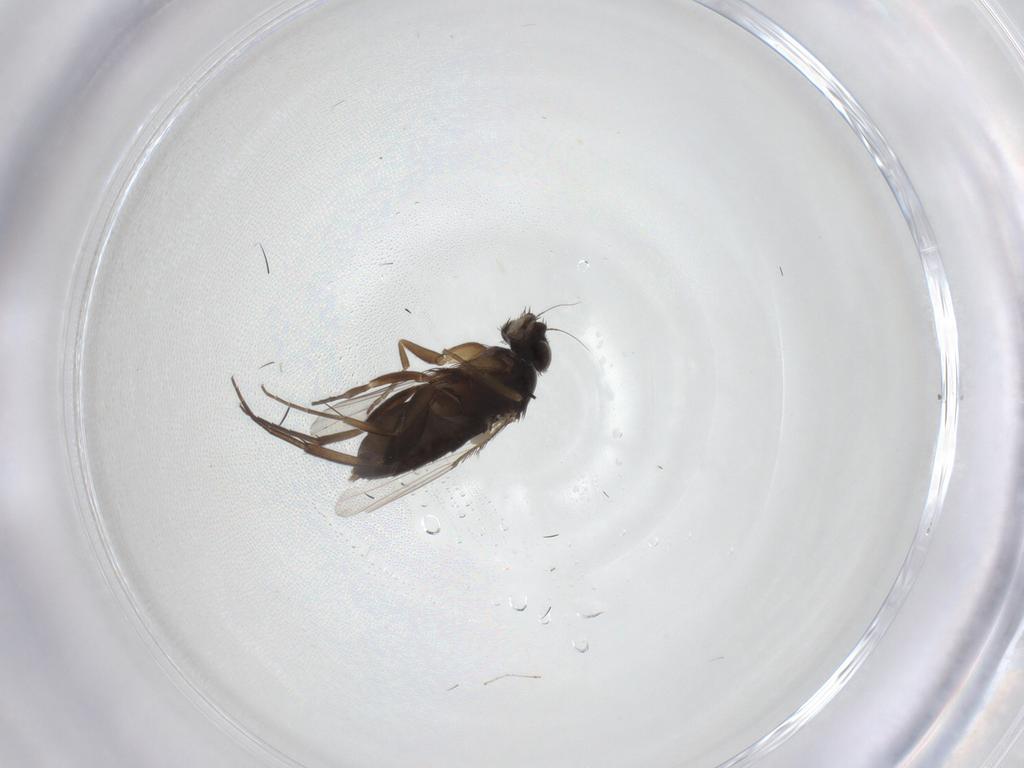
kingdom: Animalia
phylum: Arthropoda
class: Insecta
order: Diptera
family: Phoridae
